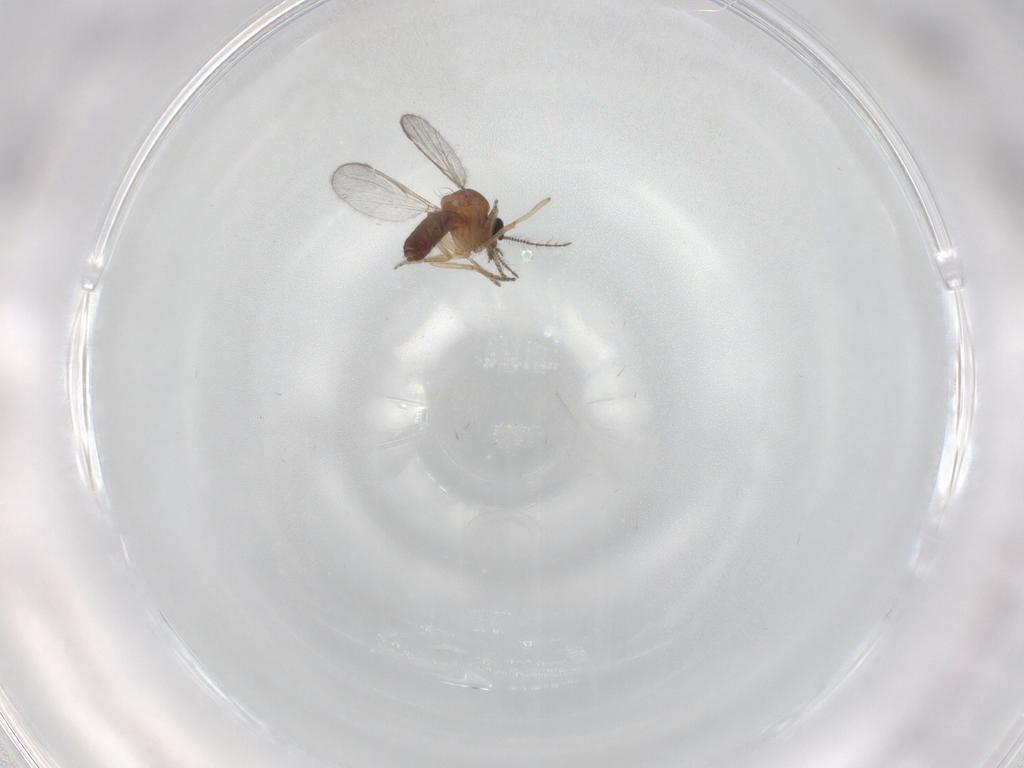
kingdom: Animalia
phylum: Arthropoda
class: Insecta
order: Diptera
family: Ceratopogonidae
